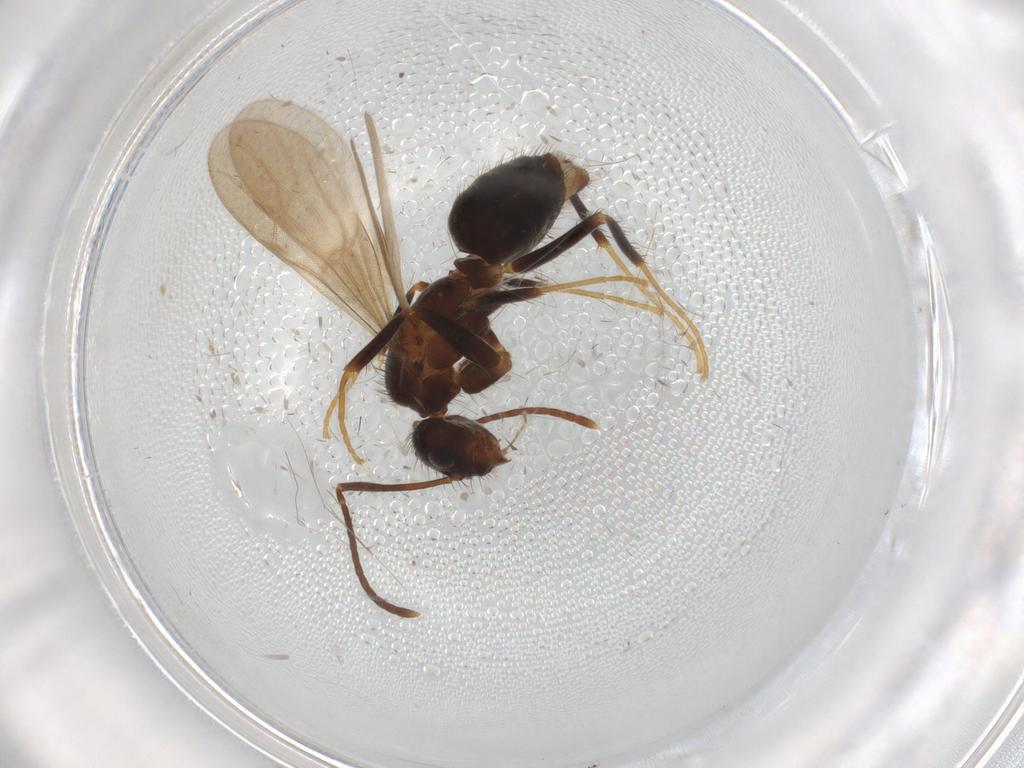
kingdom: Animalia
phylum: Arthropoda
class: Insecta
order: Hymenoptera
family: Formicidae
